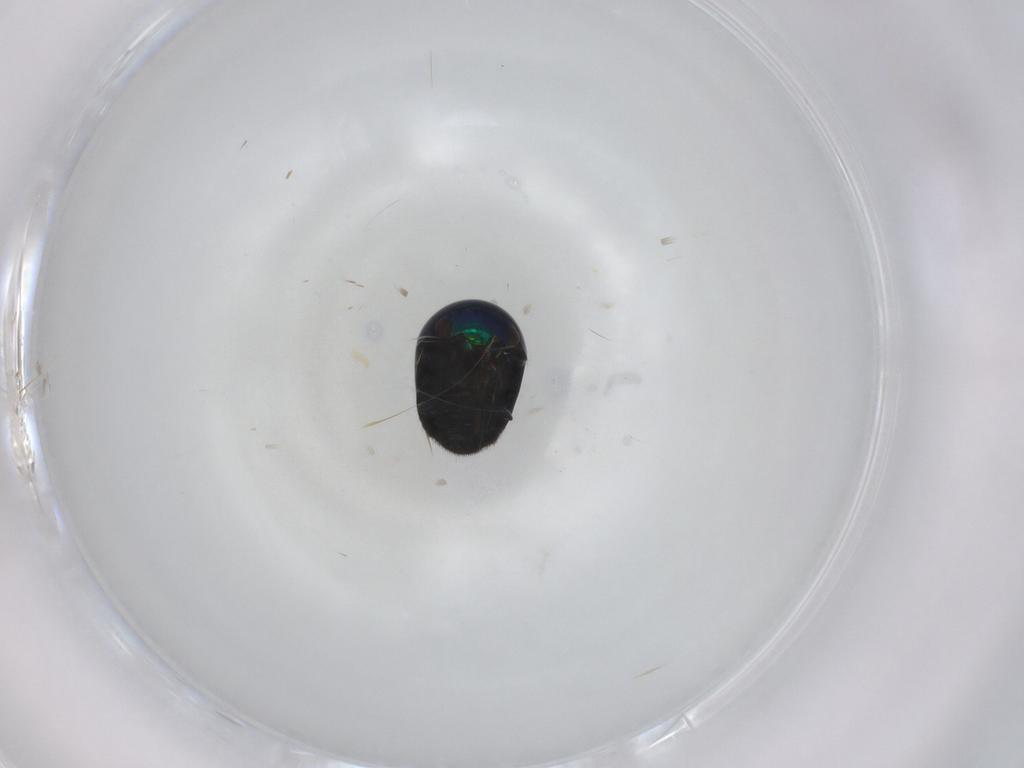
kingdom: Animalia
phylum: Arthropoda
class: Insecta
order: Coleoptera
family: Cybocephalidae
